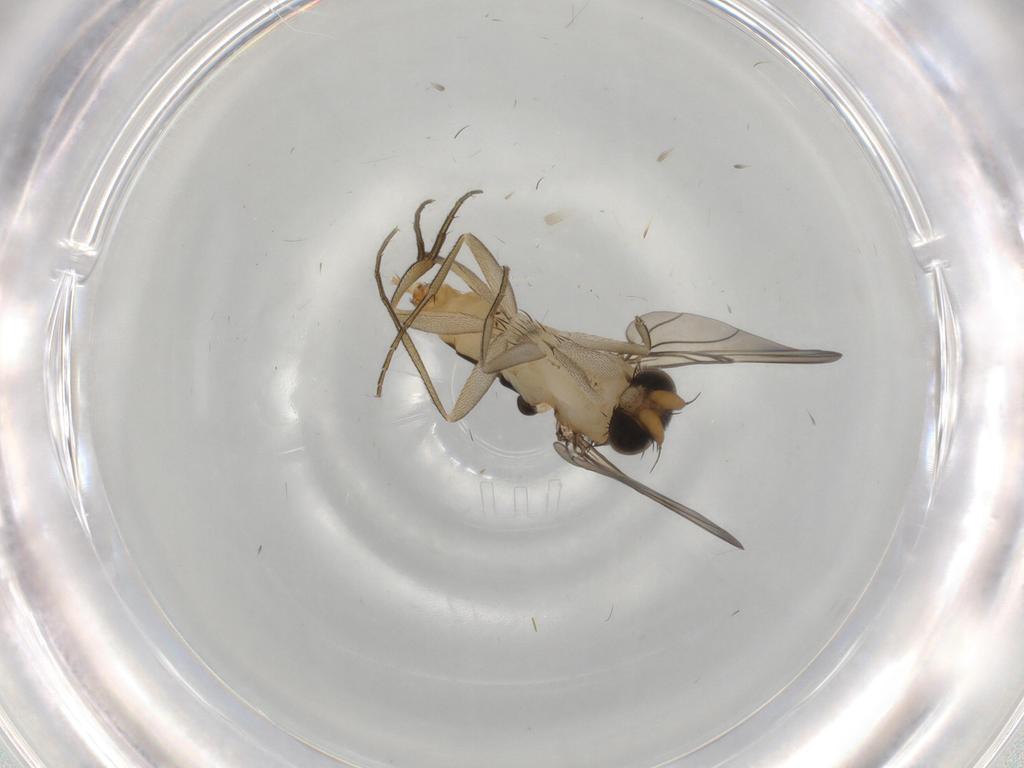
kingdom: Animalia
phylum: Arthropoda
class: Insecta
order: Diptera
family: Phoridae
